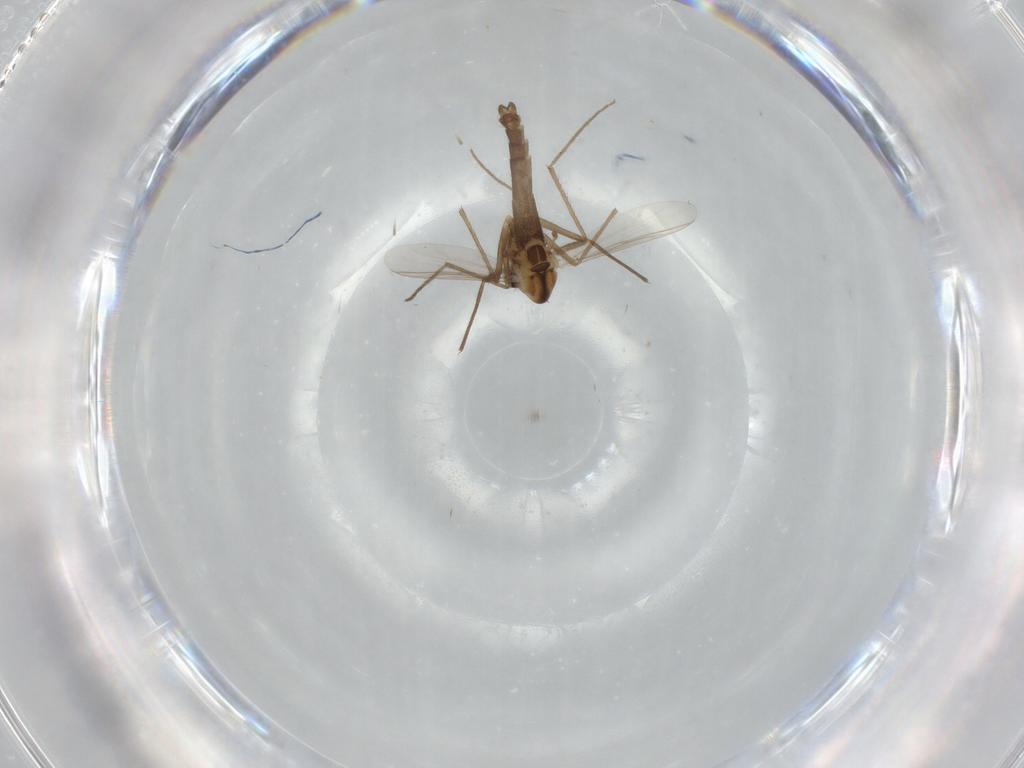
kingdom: Animalia
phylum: Arthropoda
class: Insecta
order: Diptera
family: Chironomidae
